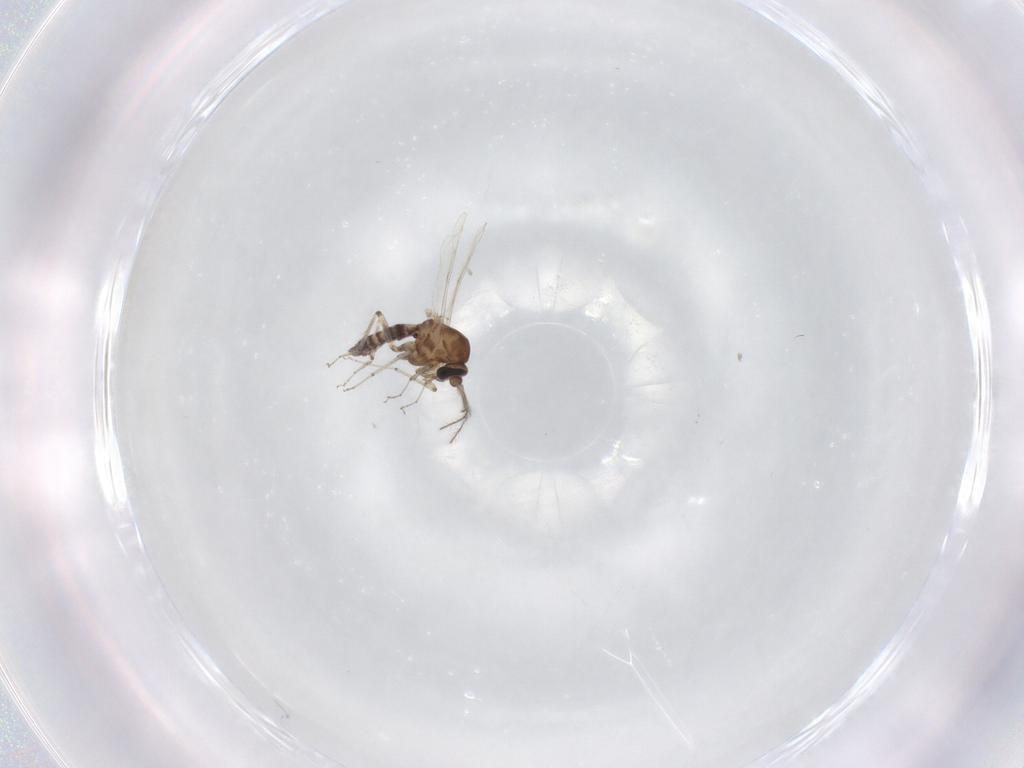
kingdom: Animalia
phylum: Arthropoda
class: Insecta
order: Diptera
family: Cecidomyiidae
